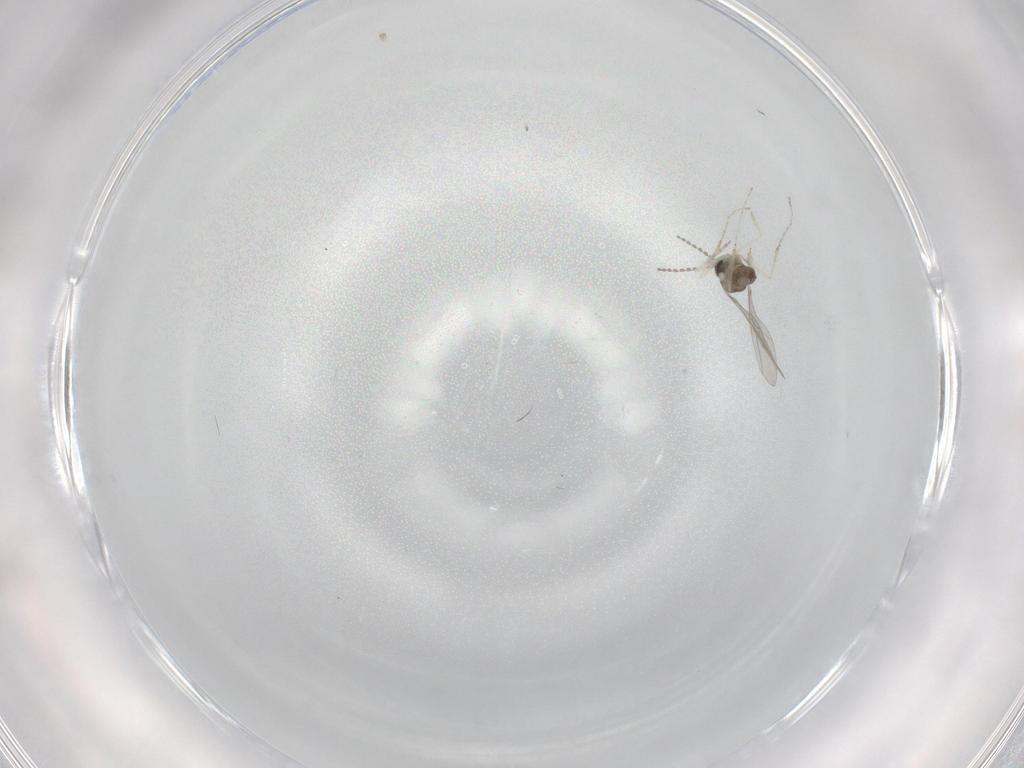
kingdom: Animalia
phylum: Arthropoda
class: Insecta
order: Diptera
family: Cecidomyiidae
